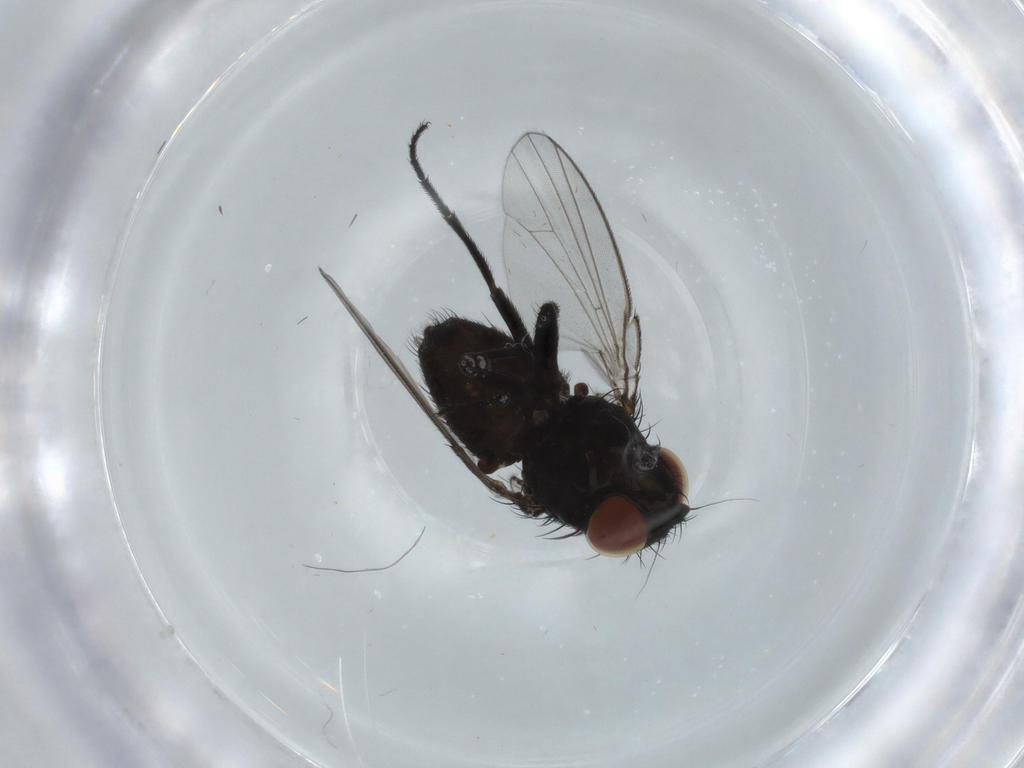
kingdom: Animalia
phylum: Arthropoda
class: Insecta
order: Diptera
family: Milichiidae
